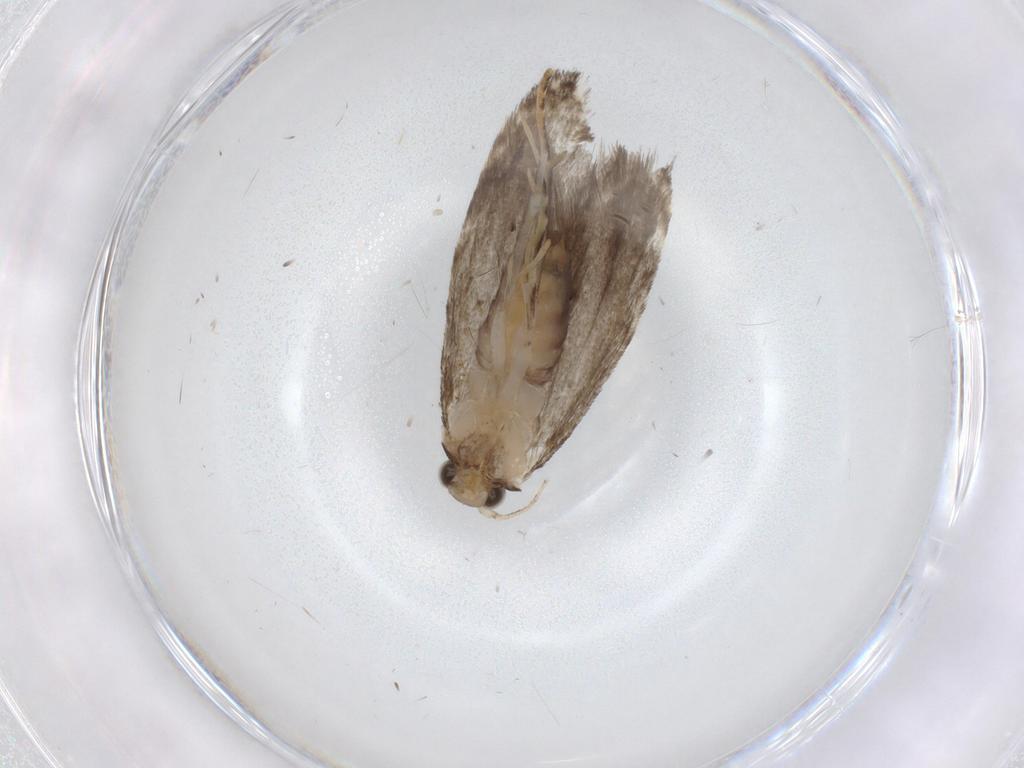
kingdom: Animalia
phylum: Arthropoda
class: Insecta
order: Lepidoptera
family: Tineidae
